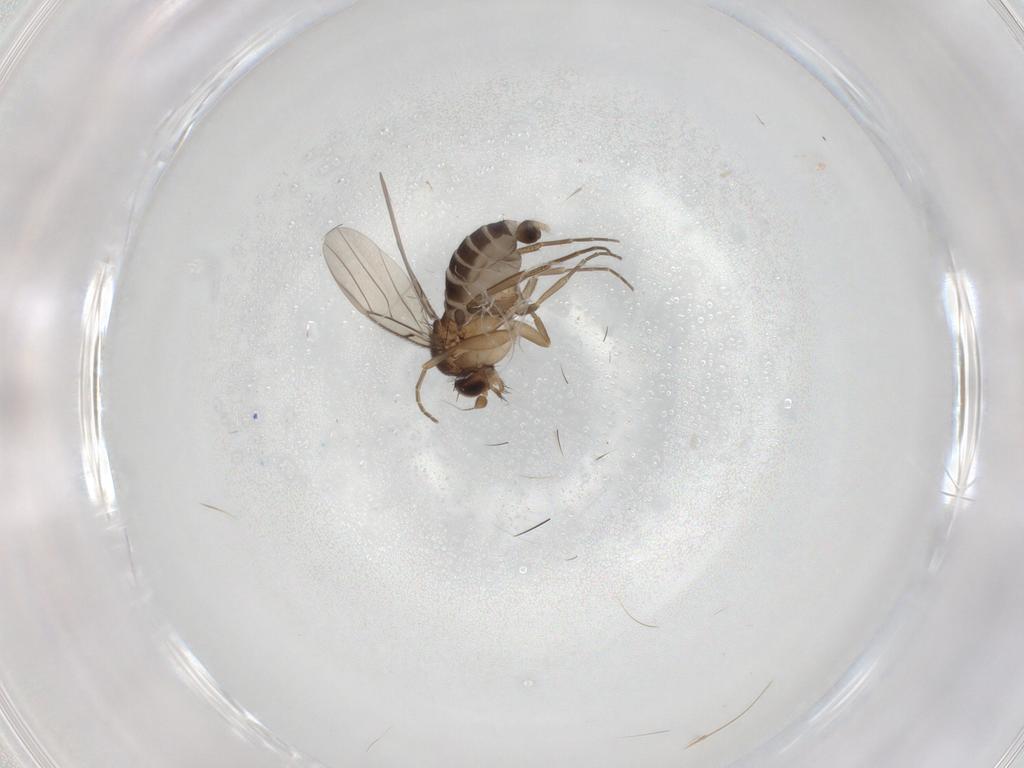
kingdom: Animalia
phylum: Arthropoda
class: Insecta
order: Diptera
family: Phoridae
